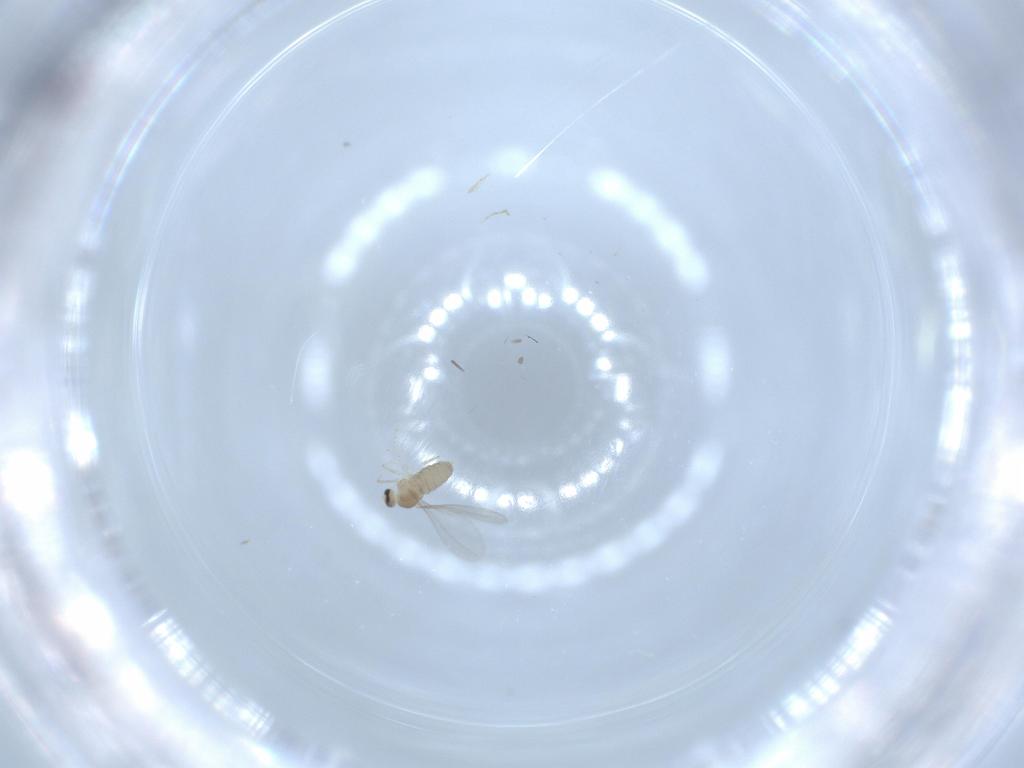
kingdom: Animalia
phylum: Arthropoda
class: Insecta
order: Diptera
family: Cecidomyiidae
